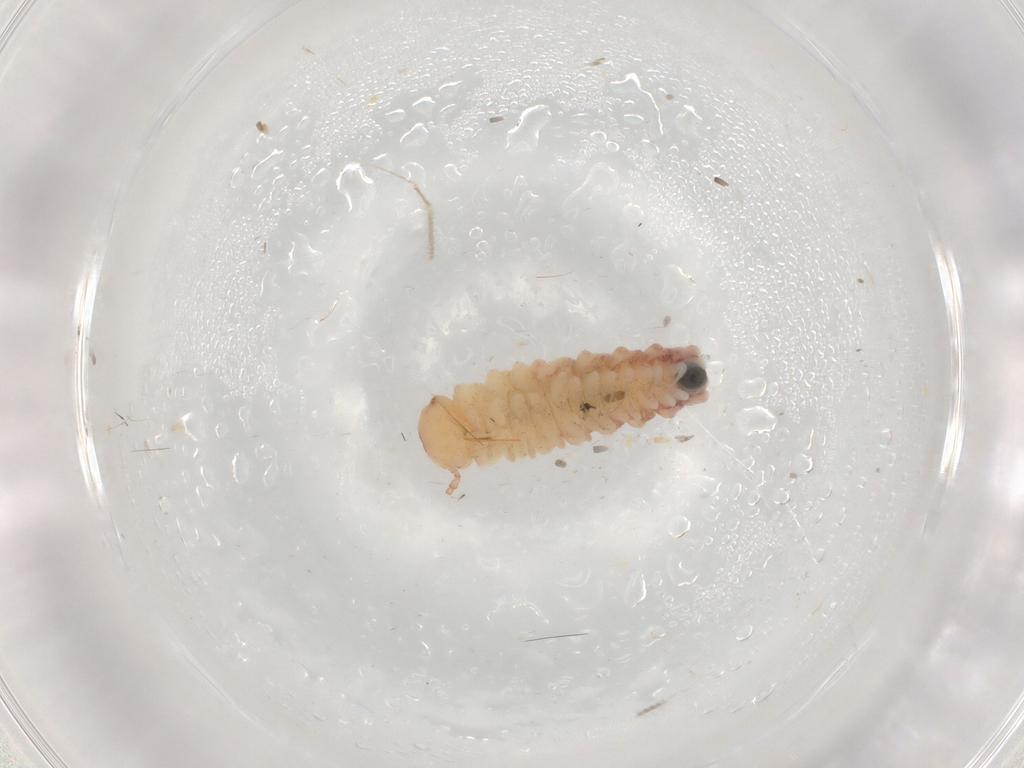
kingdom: Animalia
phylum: Arthropoda
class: Diplopoda
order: Polyxenida
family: Polyxenidae
